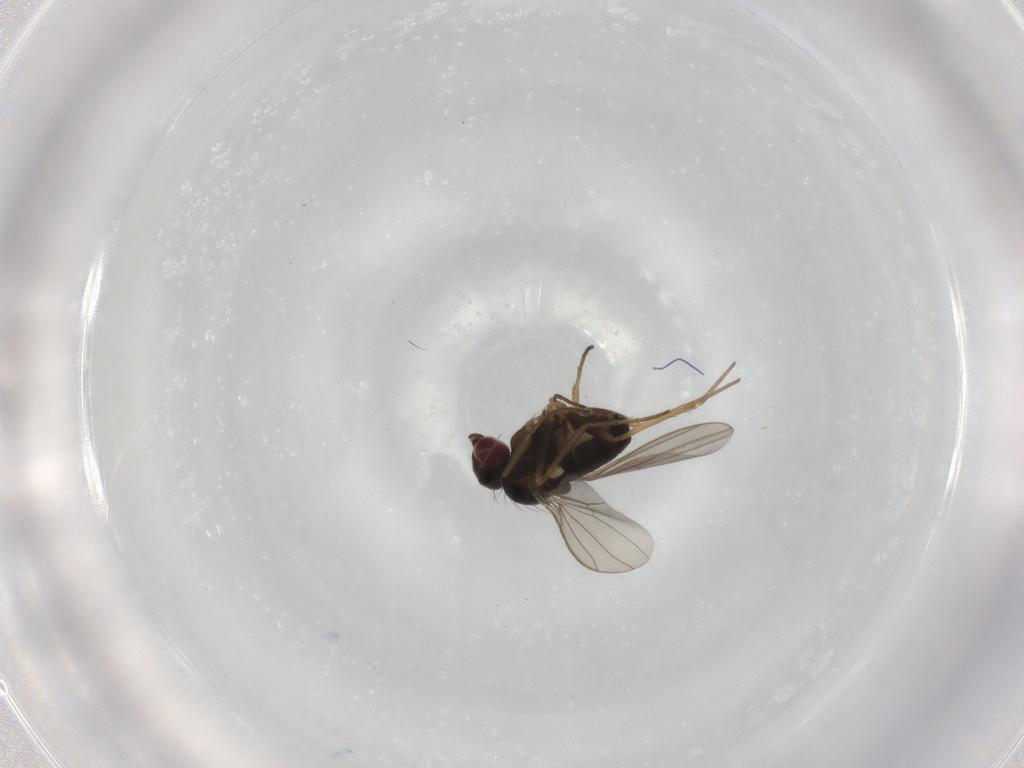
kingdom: Animalia
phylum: Arthropoda
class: Insecta
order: Diptera
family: Dolichopodidae
